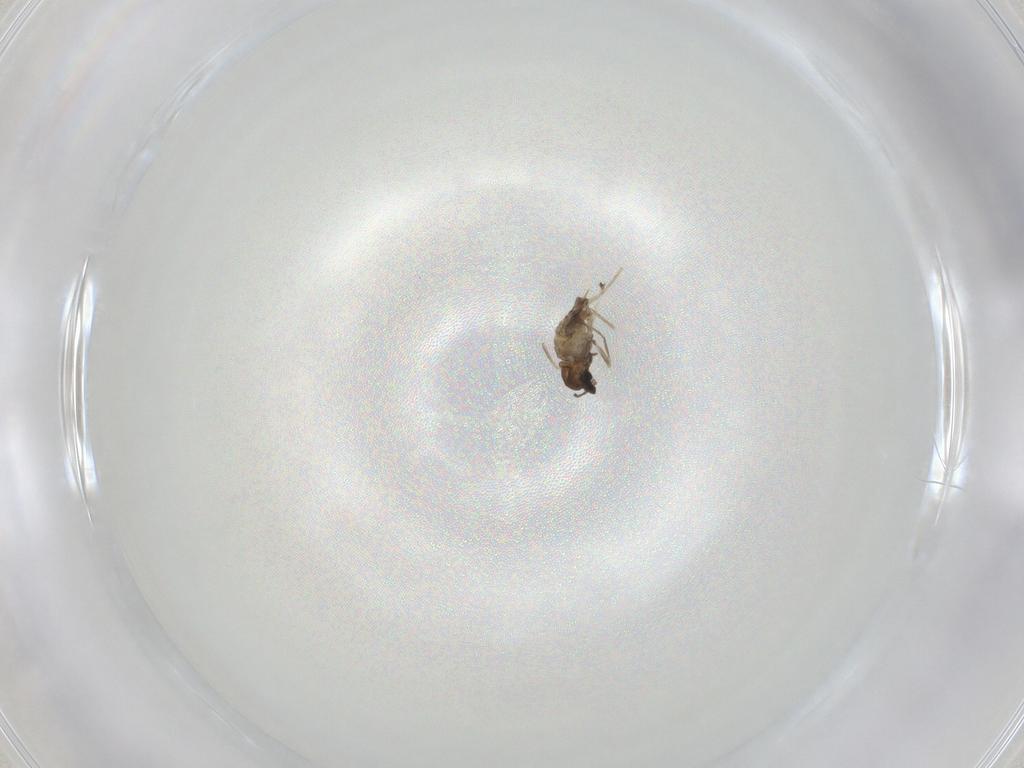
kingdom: Animalia
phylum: Arthropoda
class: Insecta
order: Diptera
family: Cecidomyiidae
